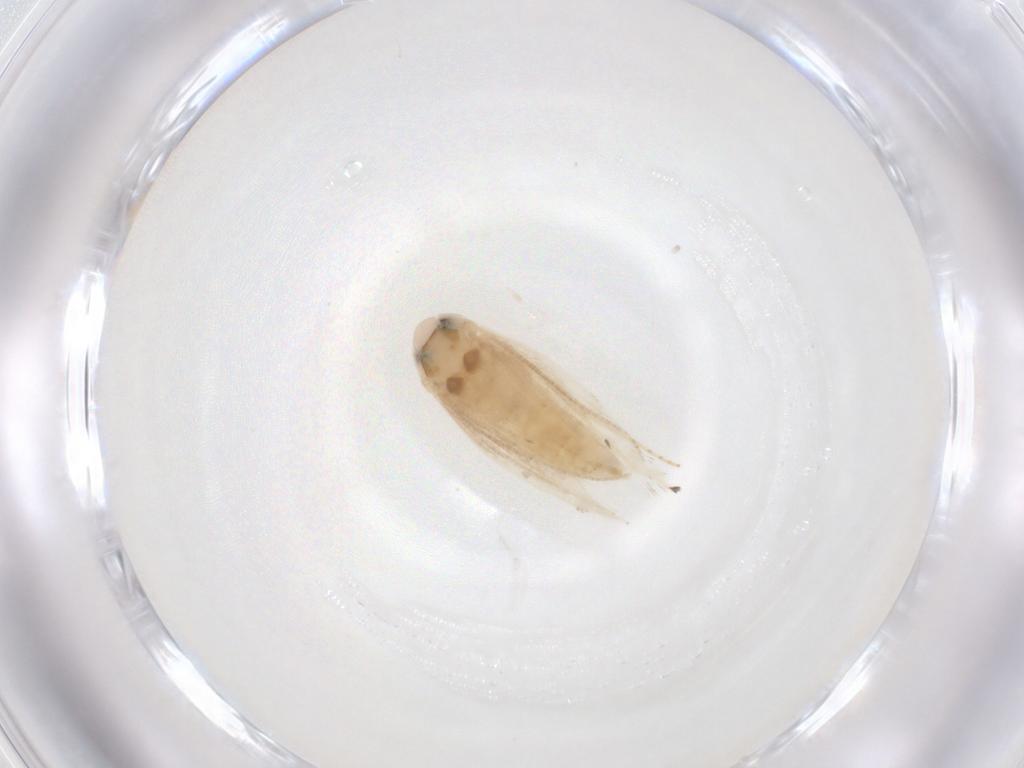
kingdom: Animalia
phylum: Arthropoda
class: Insecta
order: Lepidoptera
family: Gracillariidae
